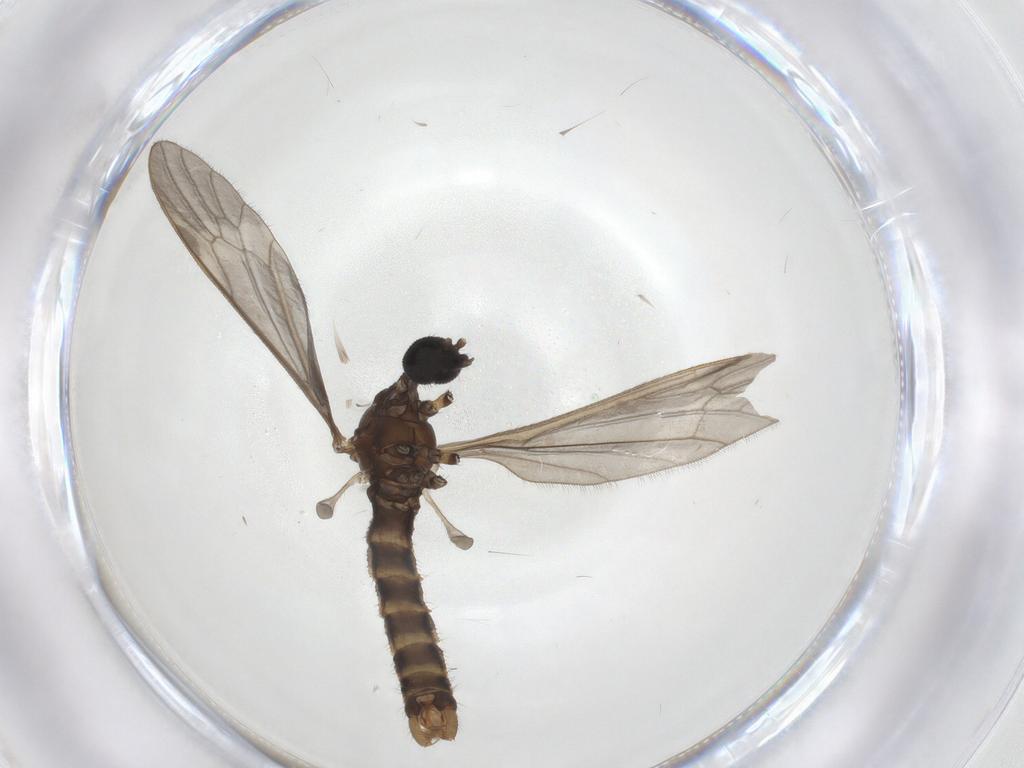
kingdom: Animalia
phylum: Arthropoda
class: Insecta
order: Diptera
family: Limoniidae
